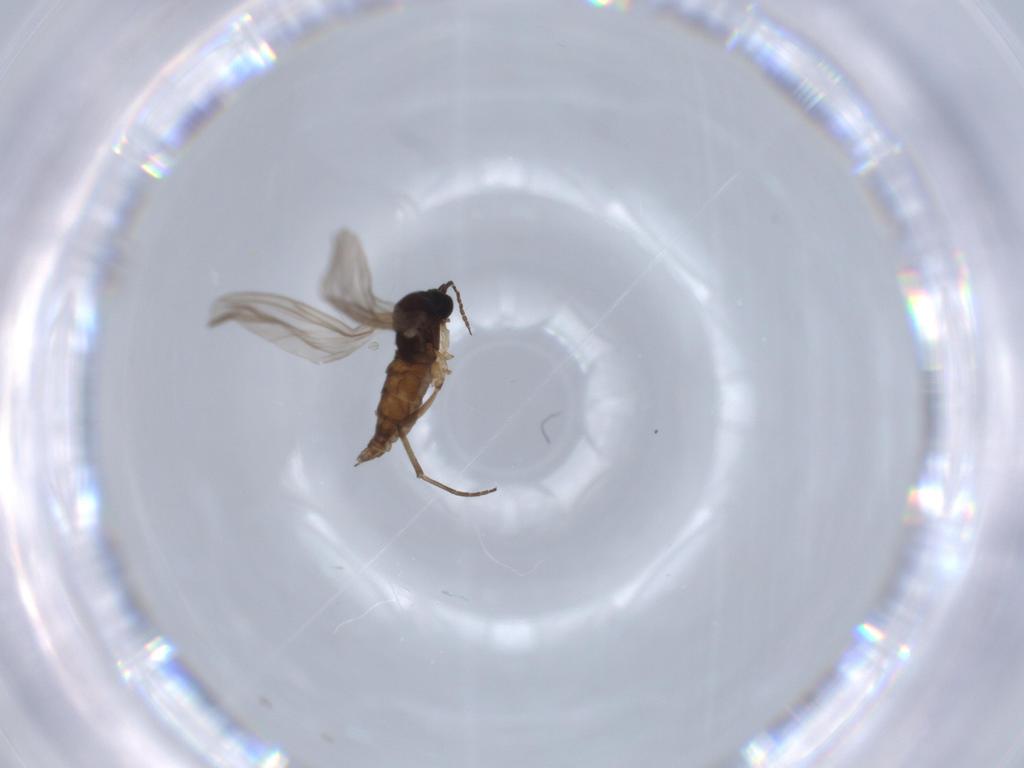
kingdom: Animalia
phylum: Arthropoda
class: Insecta
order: Diptera
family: Sciaridae
